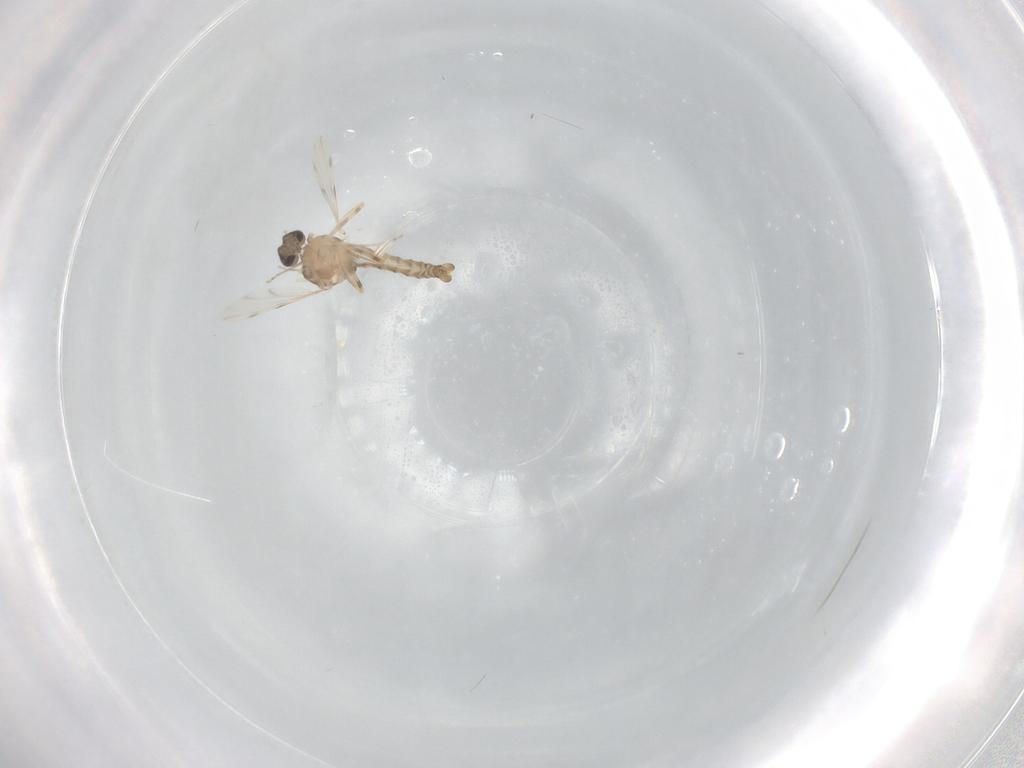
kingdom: Animalia
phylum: Arthropoda
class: Insecta
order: Diptera
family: Ceratopogonidae
